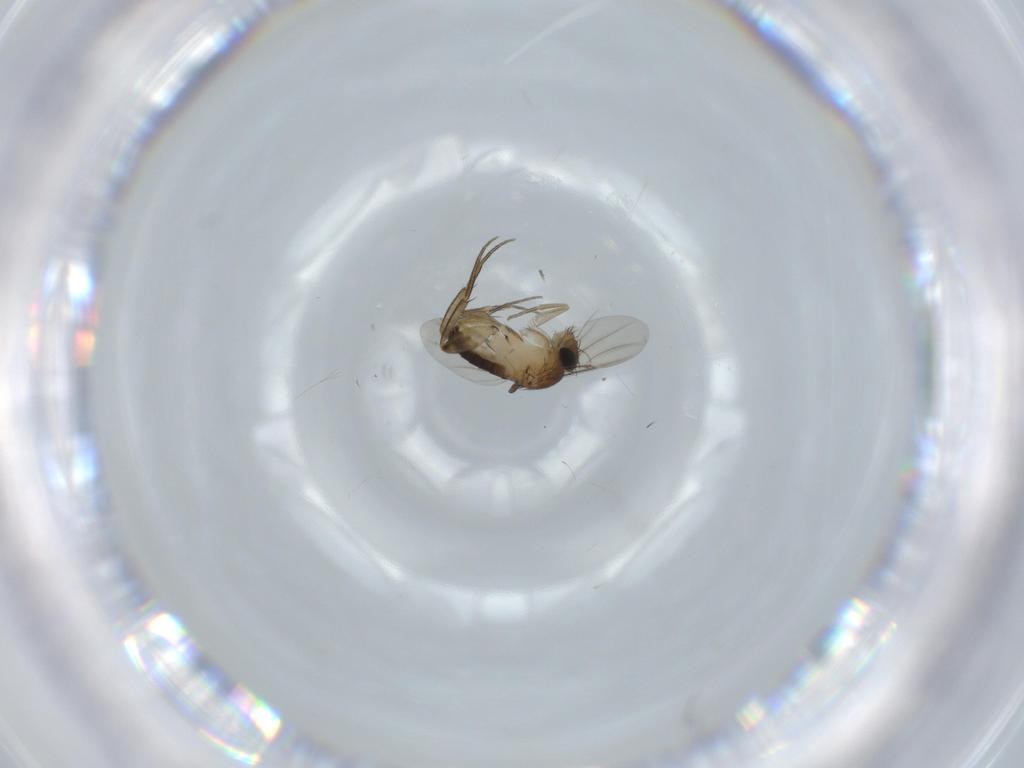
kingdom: Animalia
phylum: Arthropoda
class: Insecta
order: Diptera
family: Phoridae
